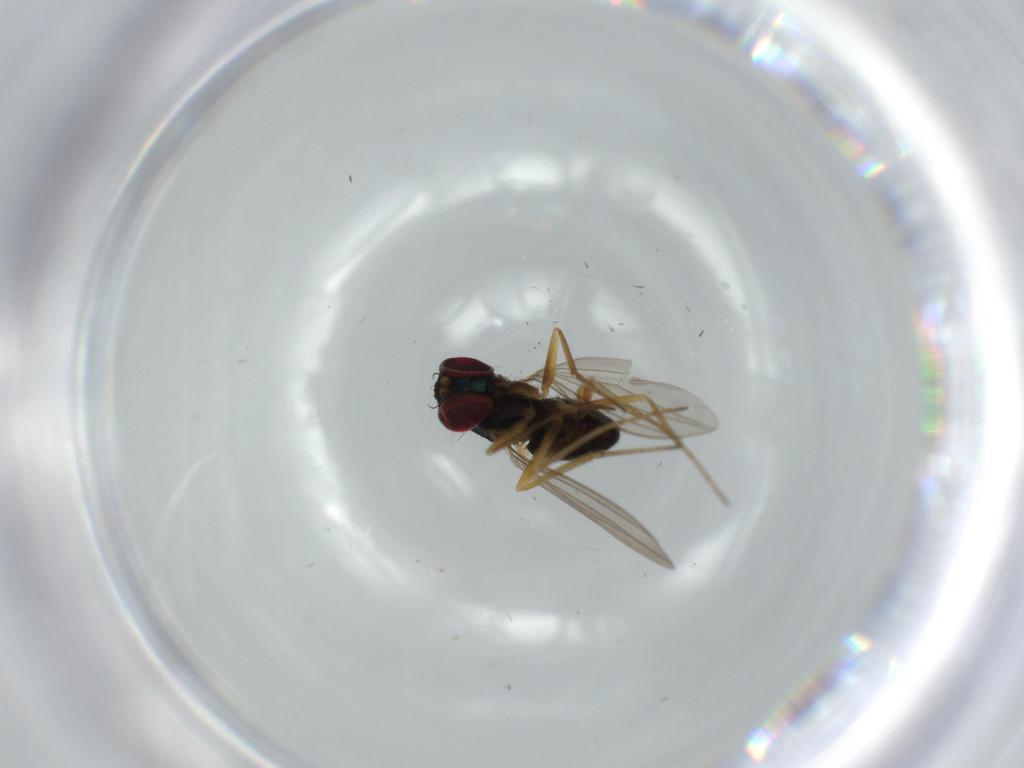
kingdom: Animalia
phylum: Arthropoda
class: Insecta
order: Diptera
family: Dolichopodidae
